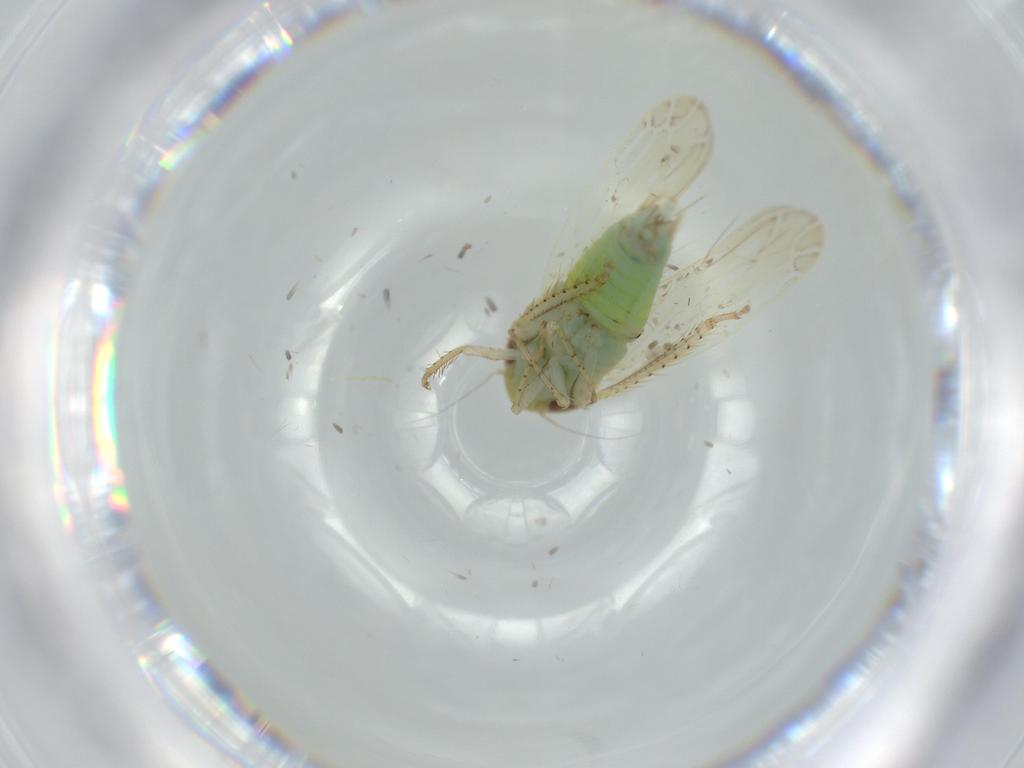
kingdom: Animalia
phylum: Arthropoda
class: Insecta
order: Hemiptera
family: Cicadellidae
